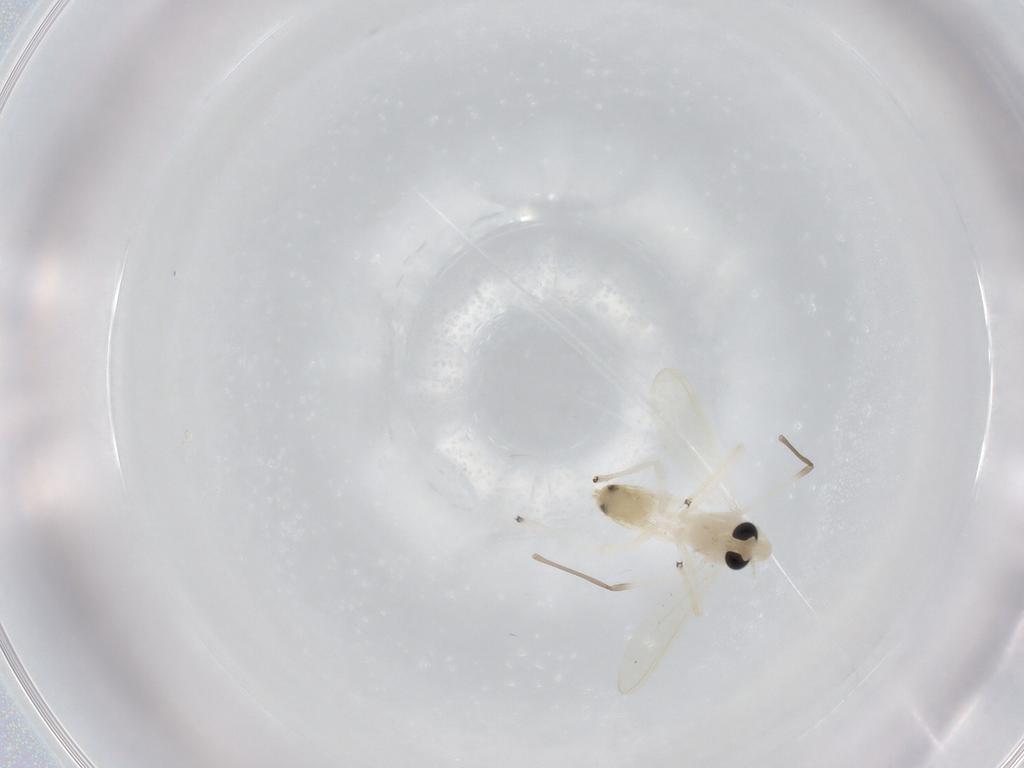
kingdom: Animalia
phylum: Arthropoda
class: Insecta
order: Diptera
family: Chironomidae
